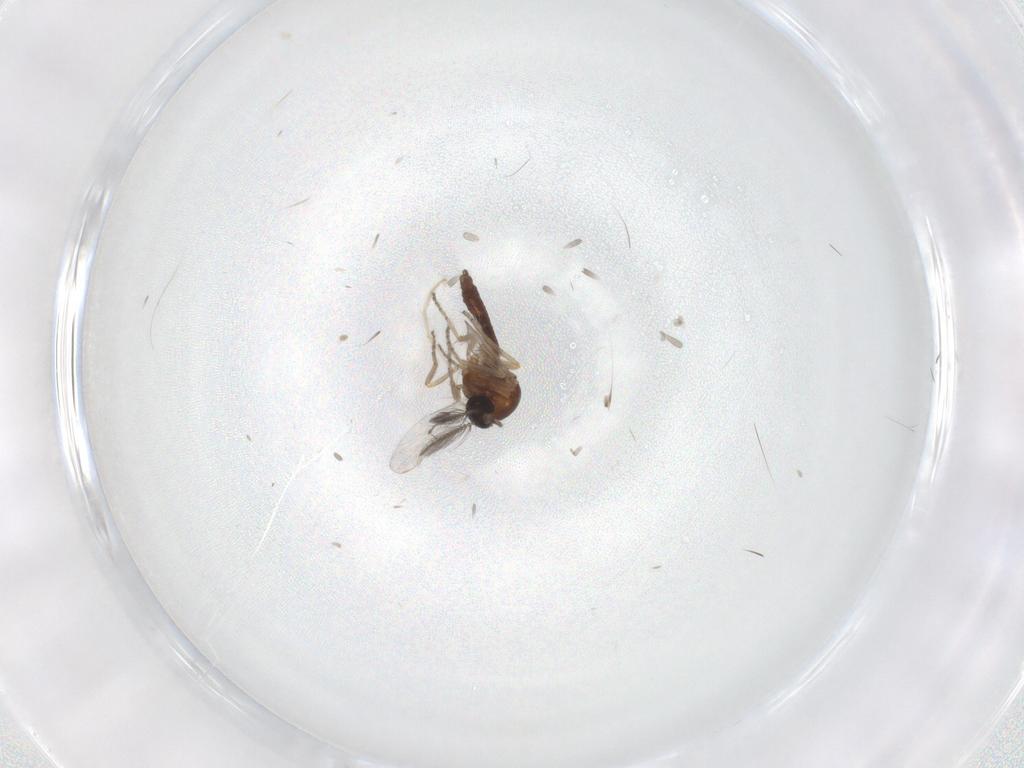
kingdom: Animalia
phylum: Arthropoda
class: Insecta
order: Diptera
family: Ceratopogonidae
